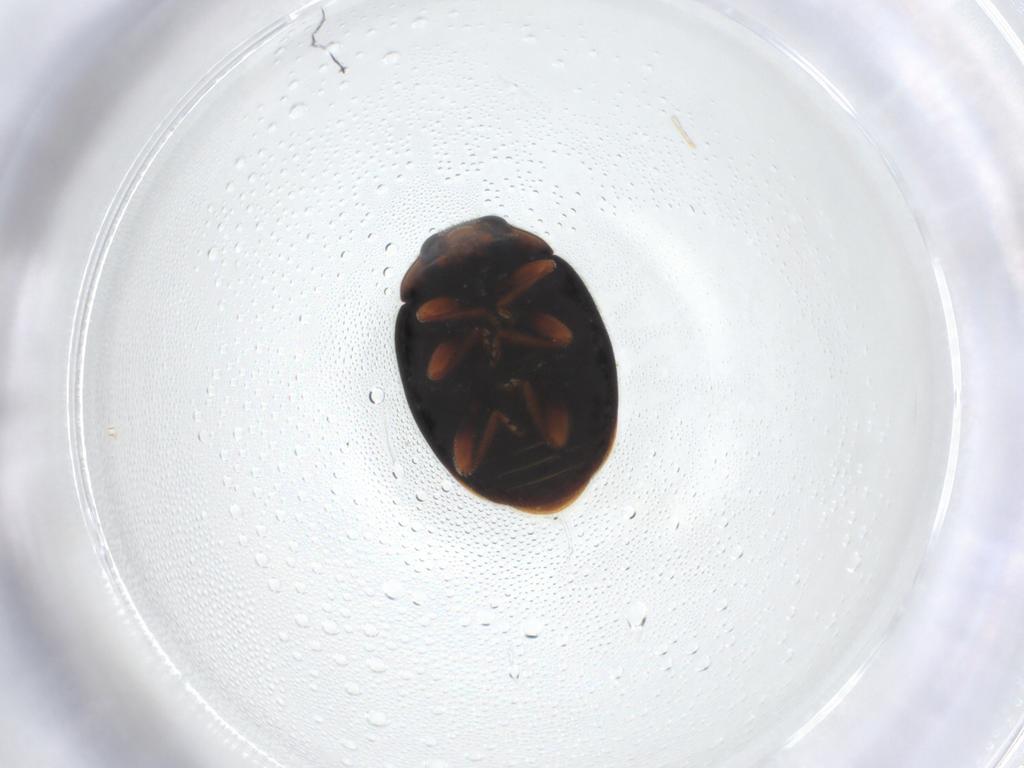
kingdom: Animalia
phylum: Arthropoda
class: Insecta
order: Coleoptera
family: Coccinellidae
